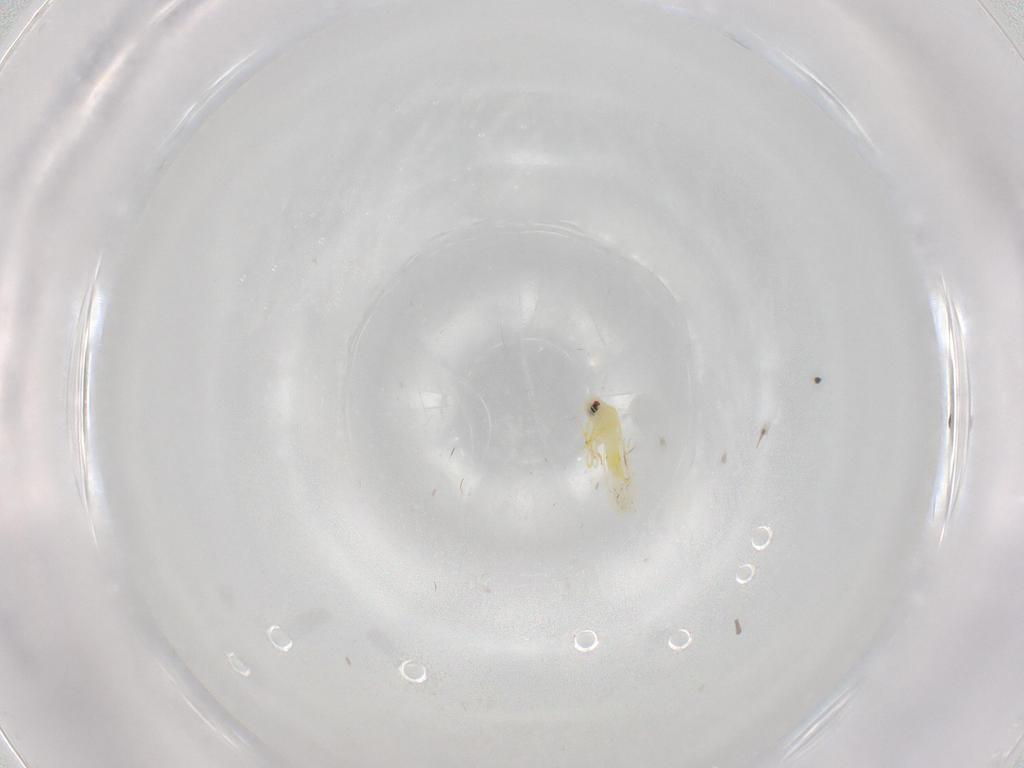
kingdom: Animalia
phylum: Arthropoda
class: Insecta
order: Hemiptera
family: Aleyrodidae
